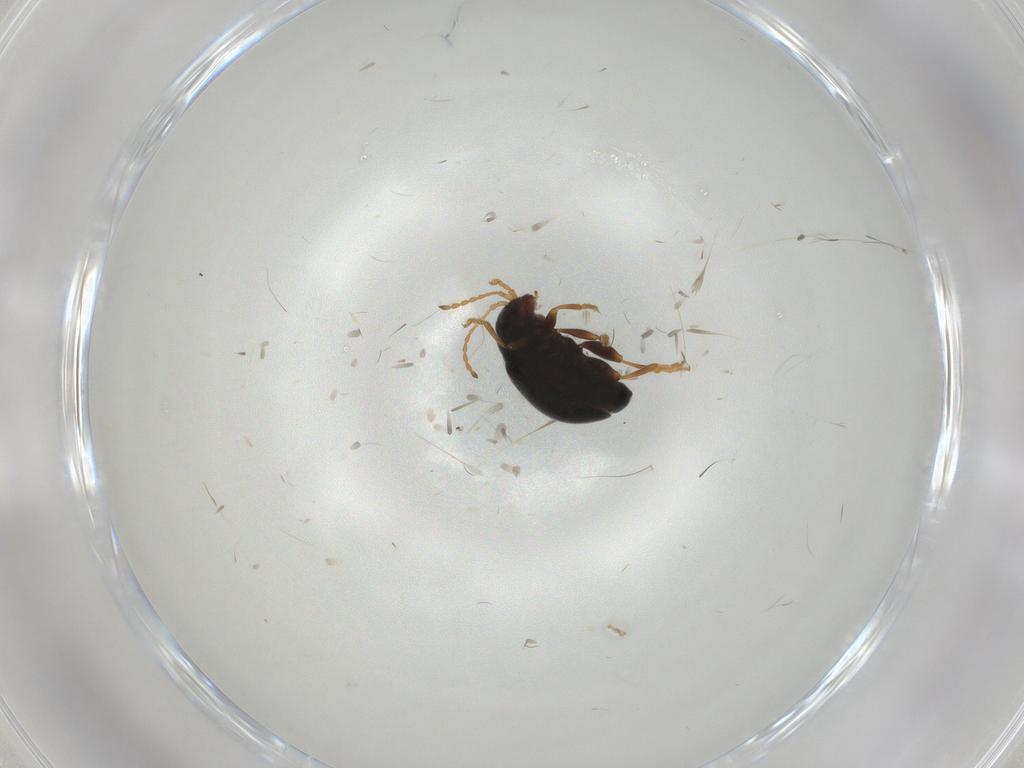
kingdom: Animalia
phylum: Arthropoda
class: Insecta
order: Coleoptera
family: Chrysomelidae
